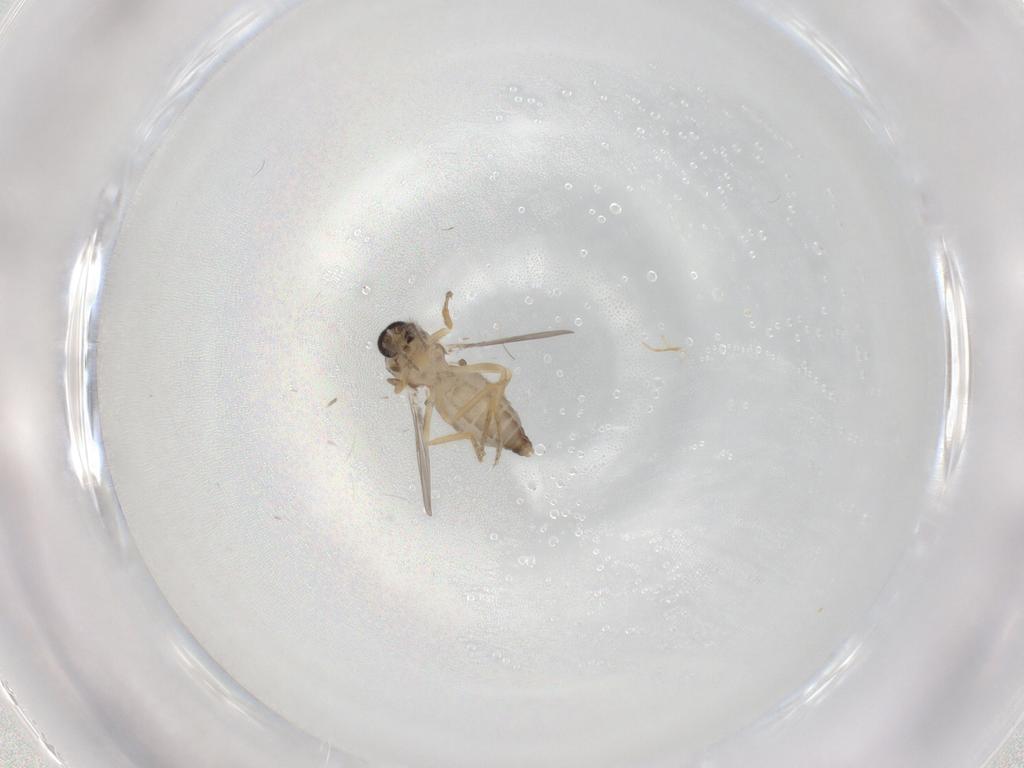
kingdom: Animalia
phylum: Arthropoda
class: Insecta
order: Diptera
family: Ceratopogonidae
